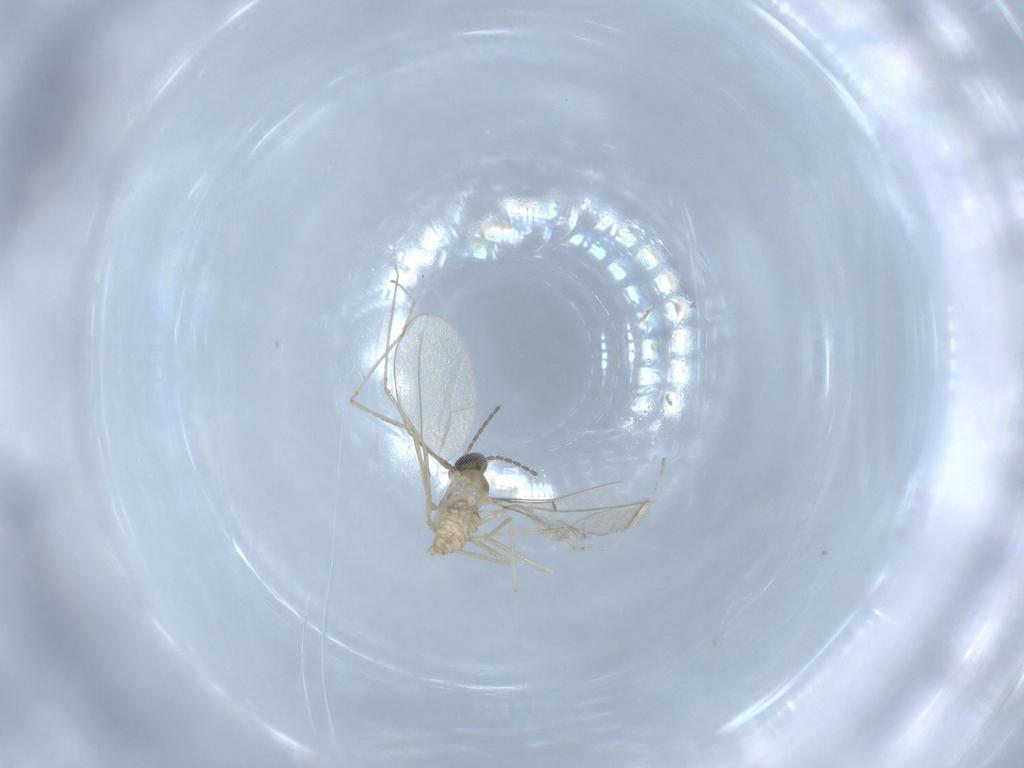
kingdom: Animalia
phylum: Arthropoda
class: Insecta
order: Diptera
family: Cecidomyiidae
